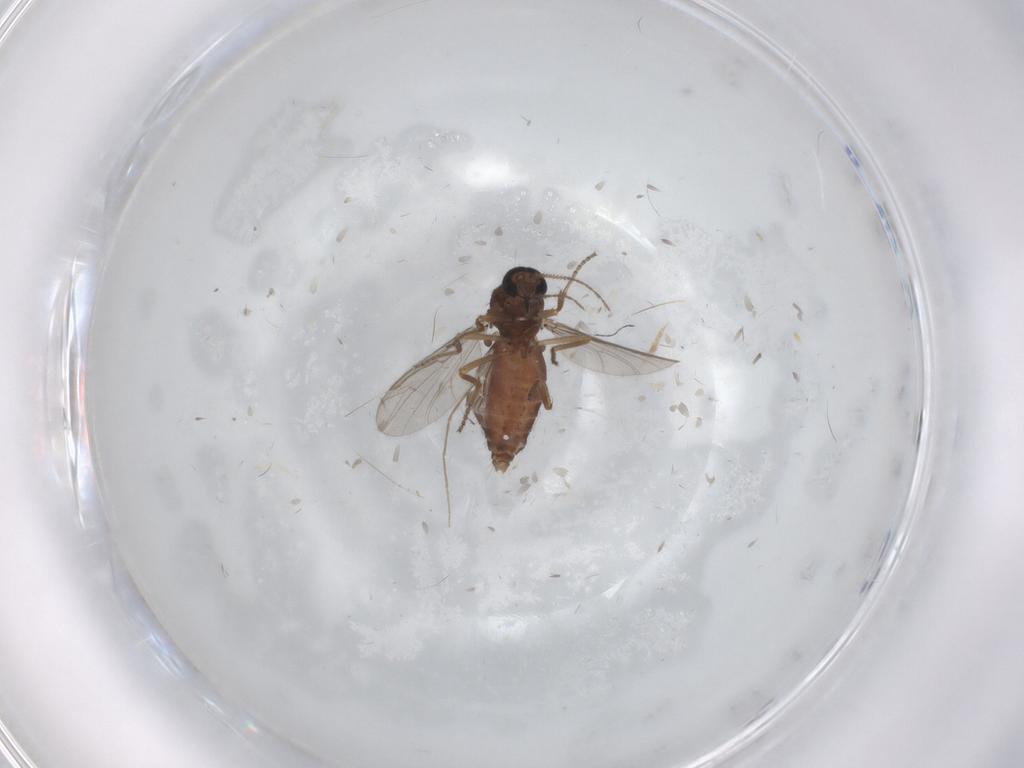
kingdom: Animalia
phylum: Arthropoda
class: Insecta
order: Diptera
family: Ceratopogonidae
